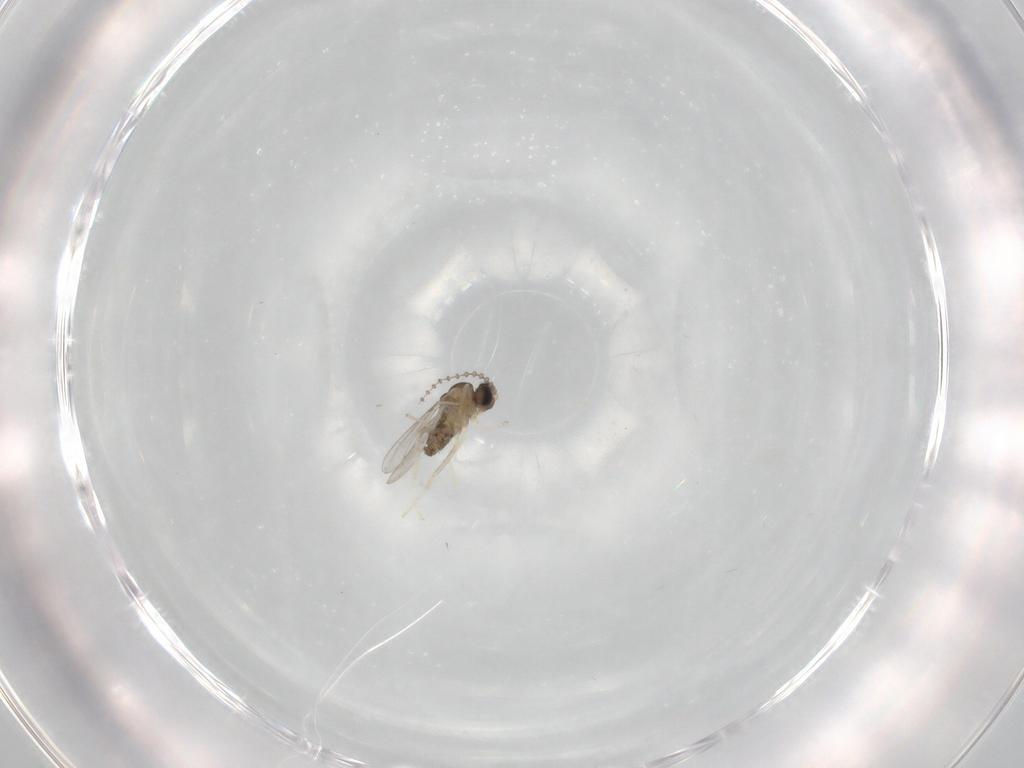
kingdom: Animalia
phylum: Arthropoda
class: Insecta
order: Diptera
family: Cecidomyiidae
